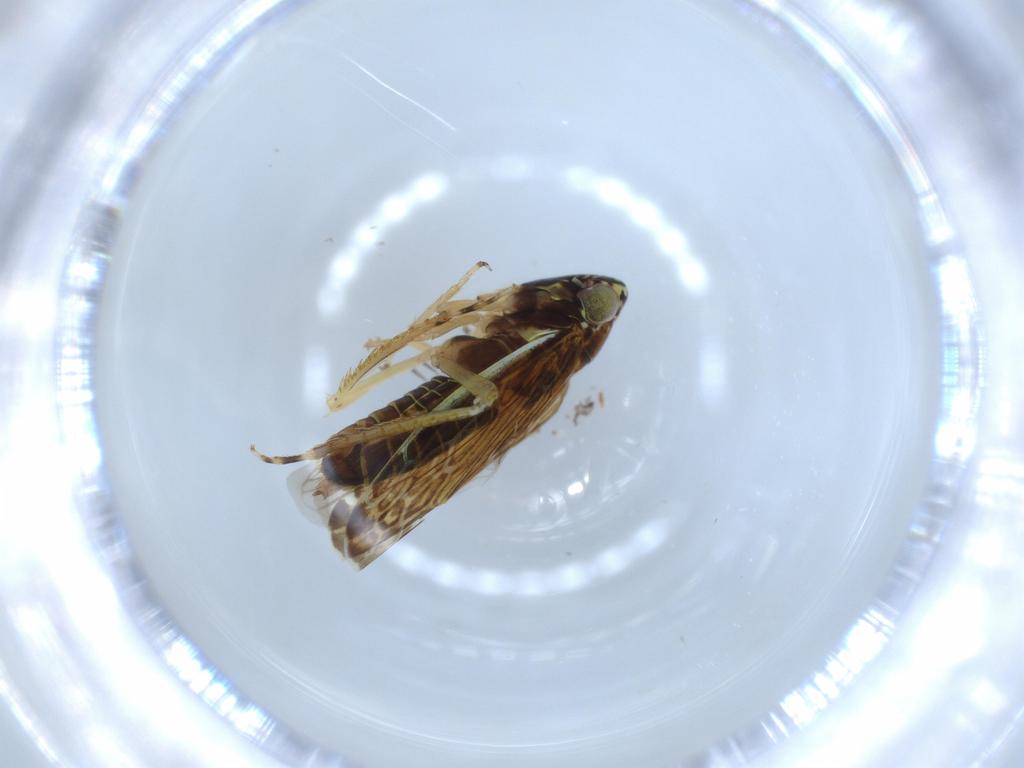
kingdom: Animalia
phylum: Arthropoda
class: Insecta
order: Hemiptera
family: Cicadellidae
